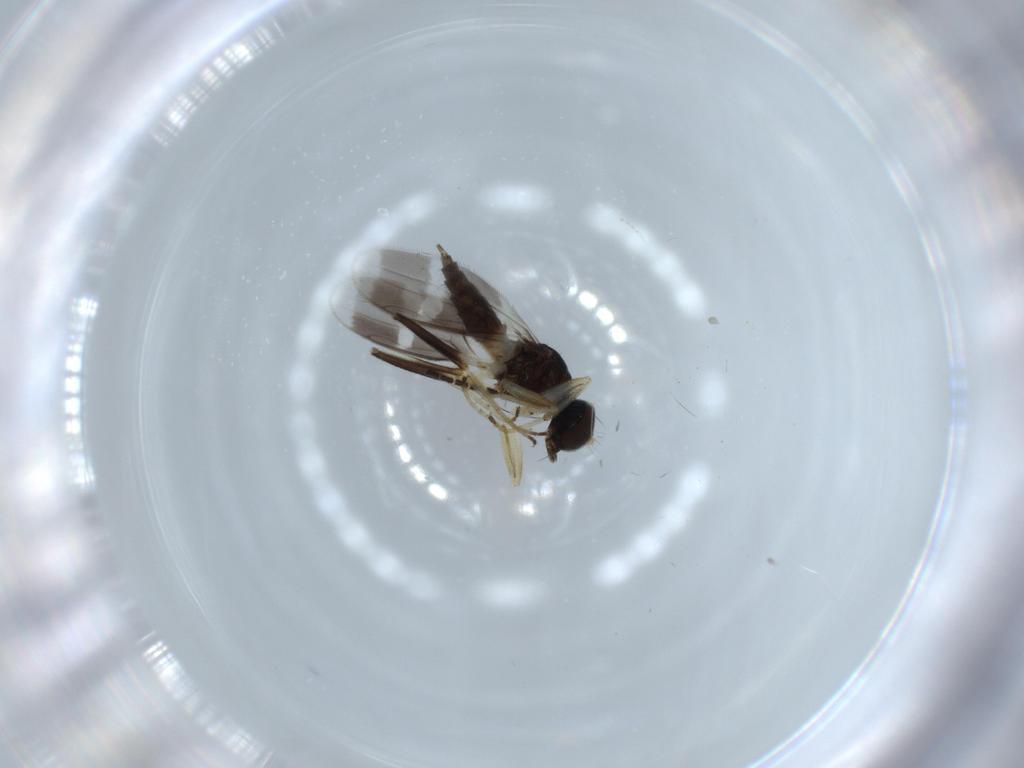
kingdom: Animalia
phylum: Arthropoda
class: Insecta
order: Diptera
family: Hybotidae
